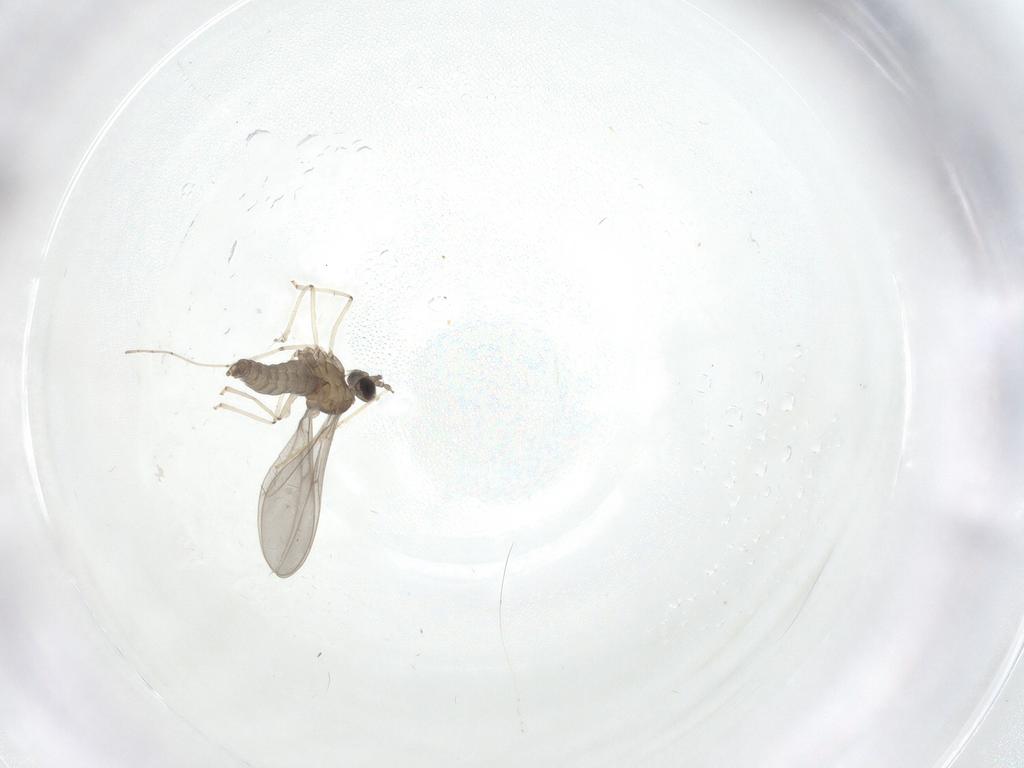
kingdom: Animalia
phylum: Arthropoda
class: Insecta
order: Diptera
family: Cecidomyiidae
